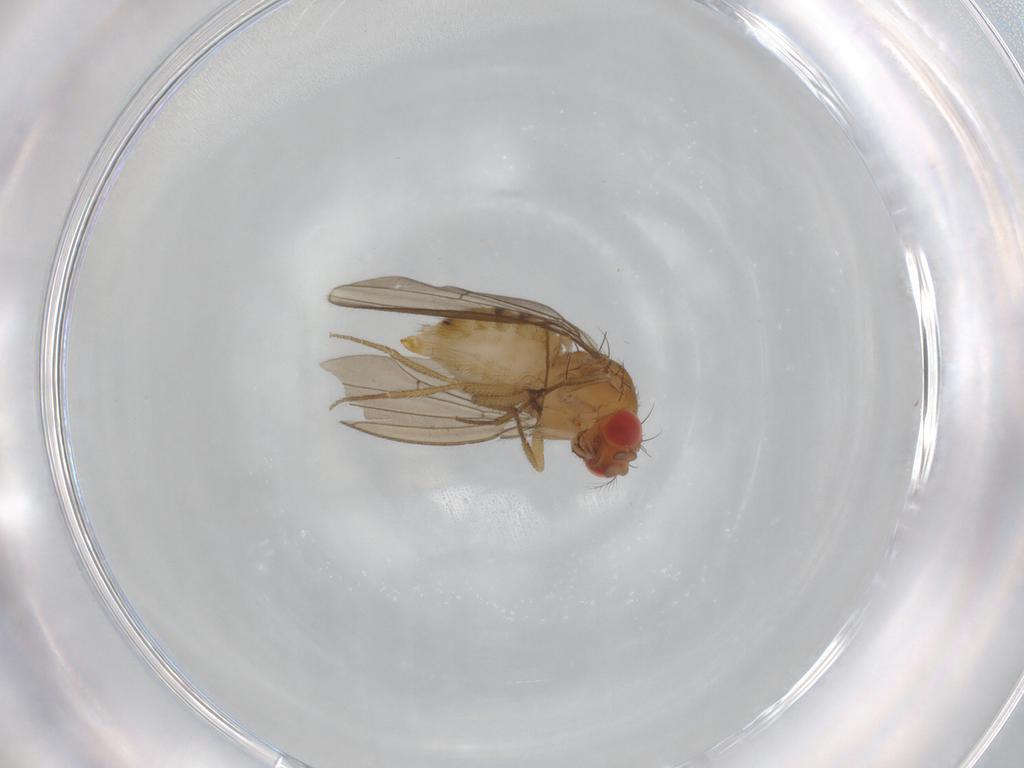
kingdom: Animalia
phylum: Arthropoda
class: Insecta
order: Diptera
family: Drosophilidae
